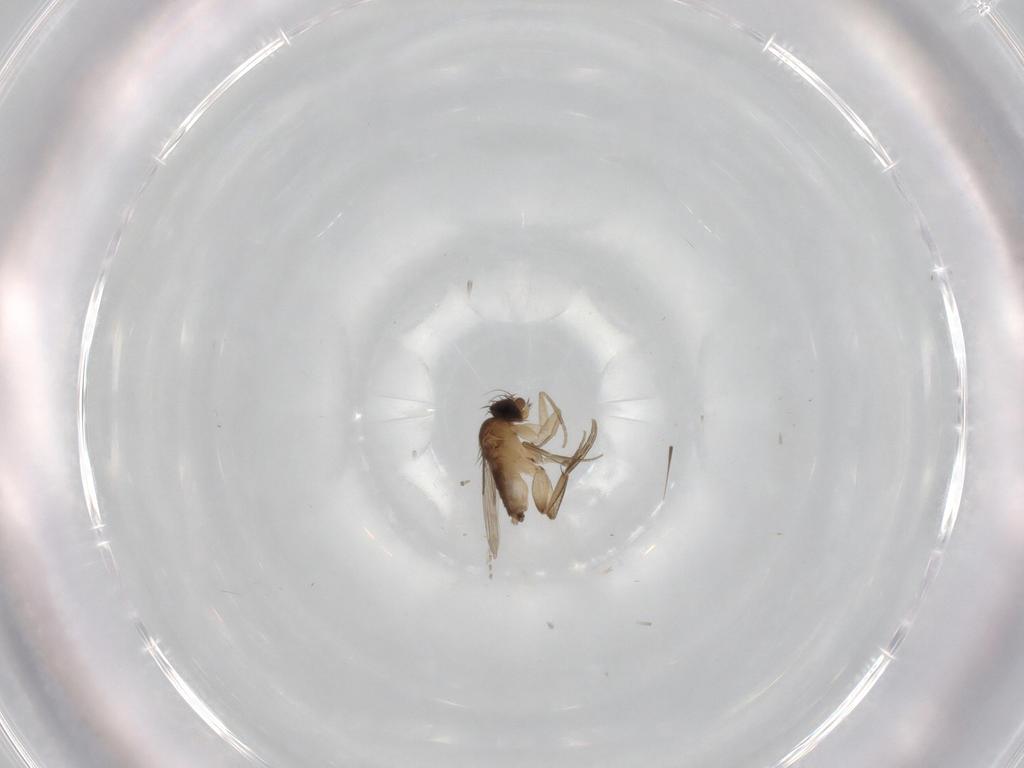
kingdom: Animalia
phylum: Arthropoda
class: Insecta
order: Diptera
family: Phoridae
